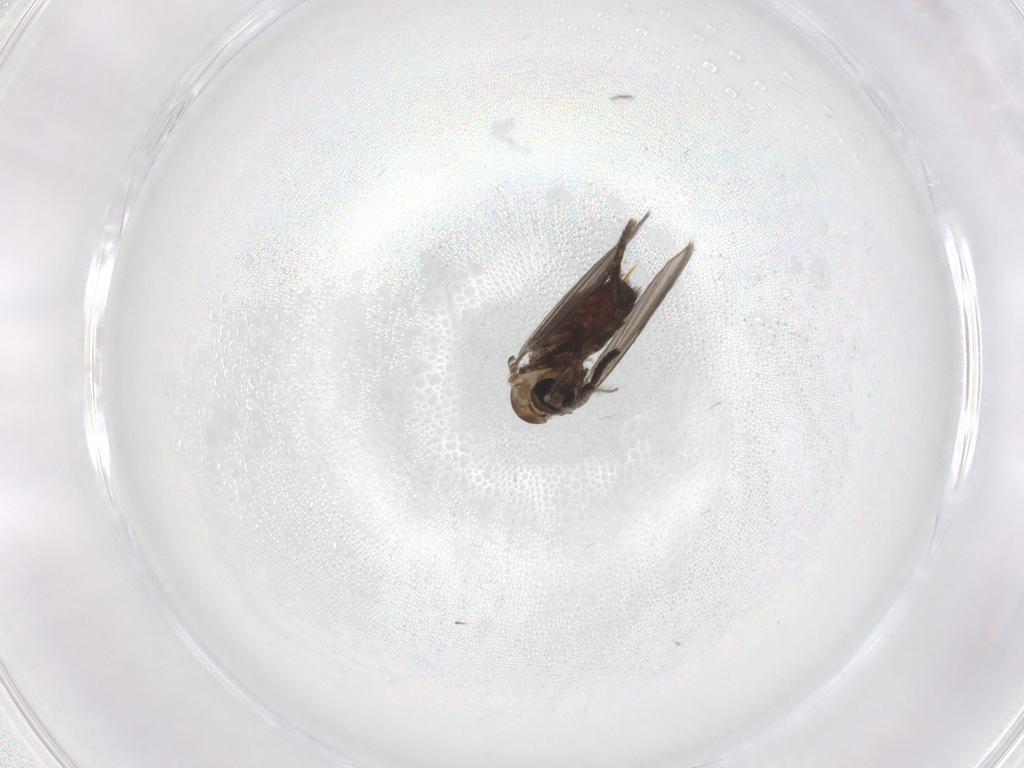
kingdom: Animalia
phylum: Arthropoda
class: Insecta
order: Diptera
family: Psychodidae
